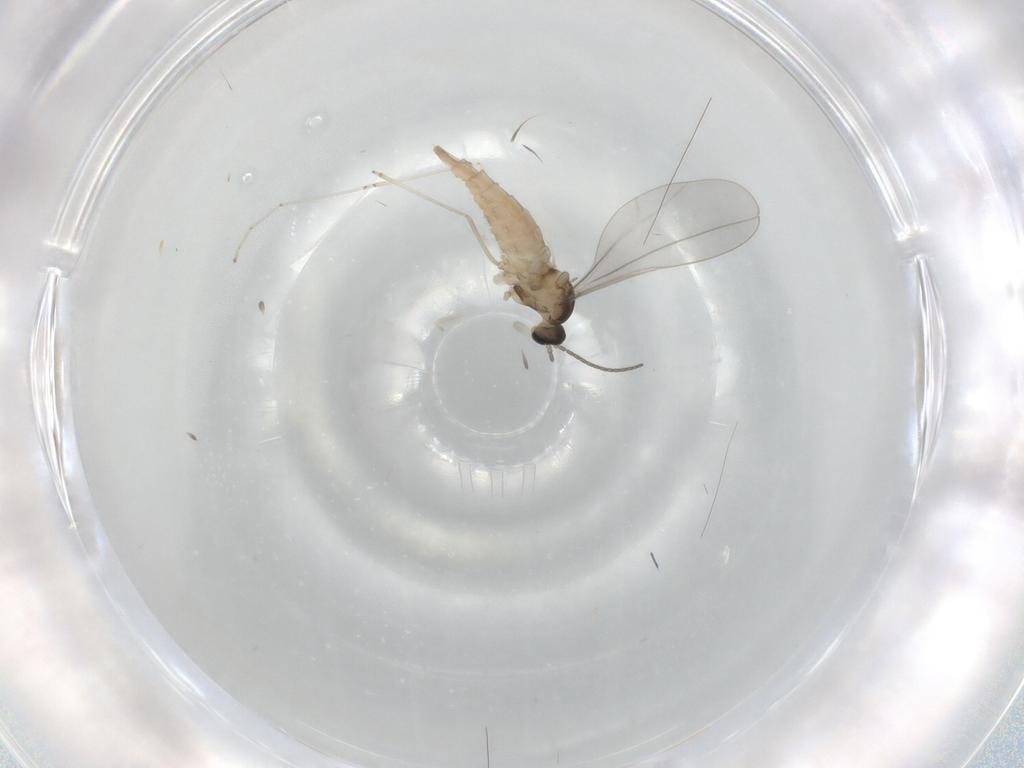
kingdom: Animalia
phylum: Arthropoda
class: Insecta
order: Diptera
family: Cecidomyiidae
